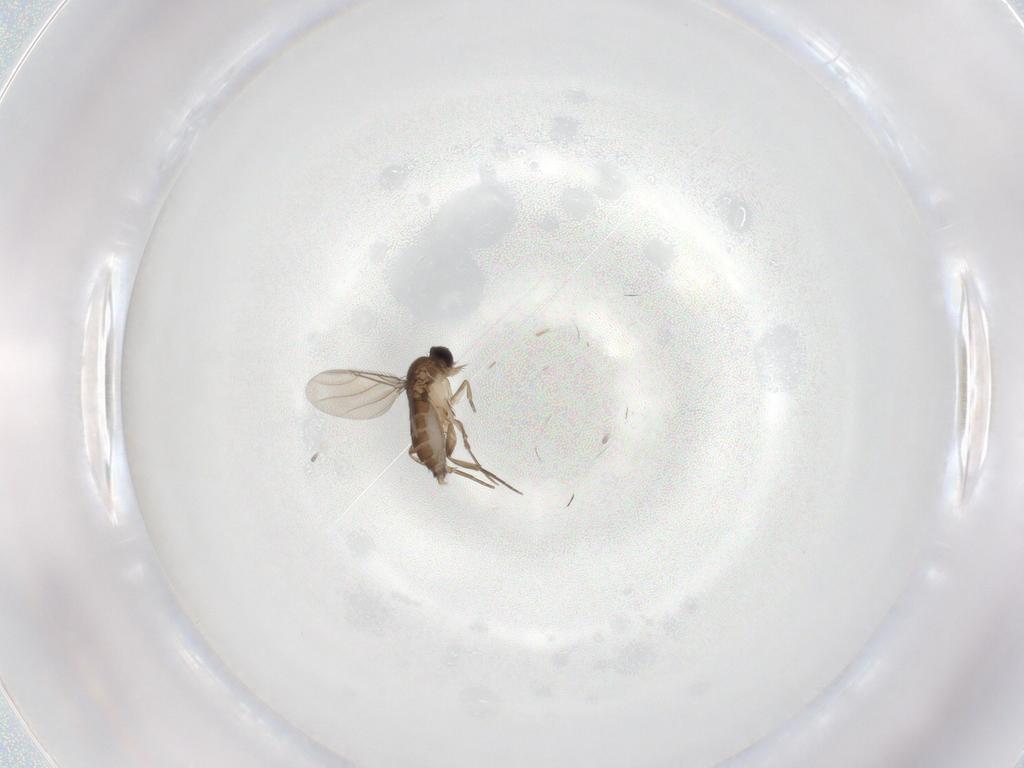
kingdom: Animalia
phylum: Arthropoda
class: Insecta
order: Diptera
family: Phoridae
